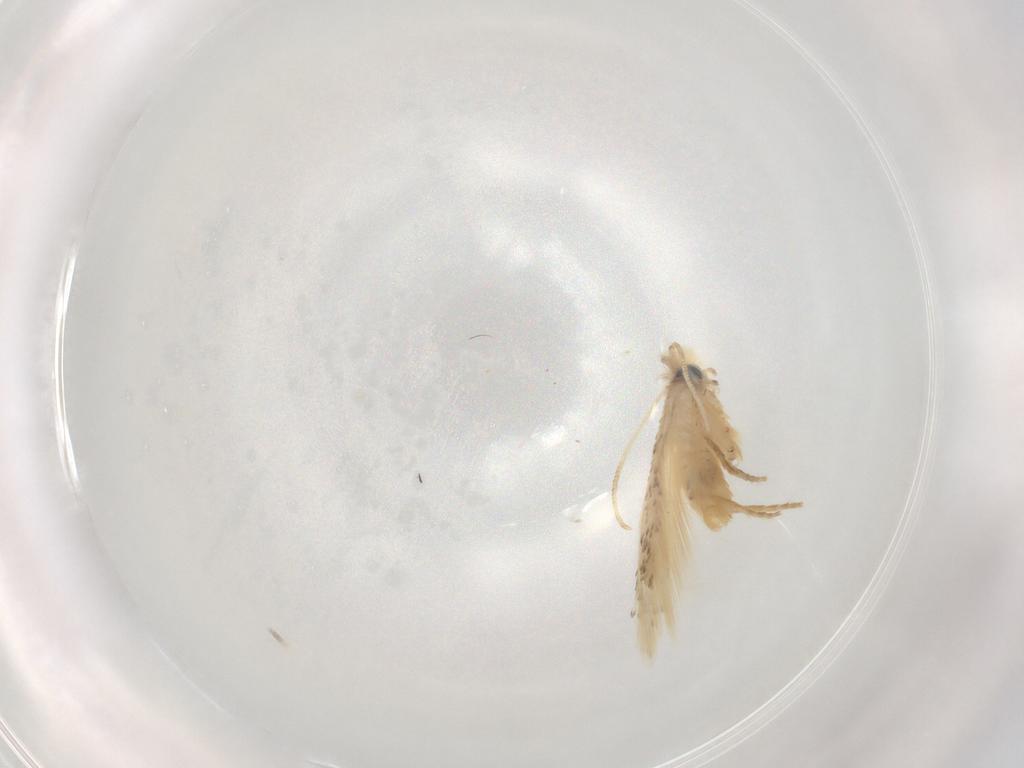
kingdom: Animalia
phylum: Arthropoda
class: Insecta
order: Lepidoptera
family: Nepticulidae
